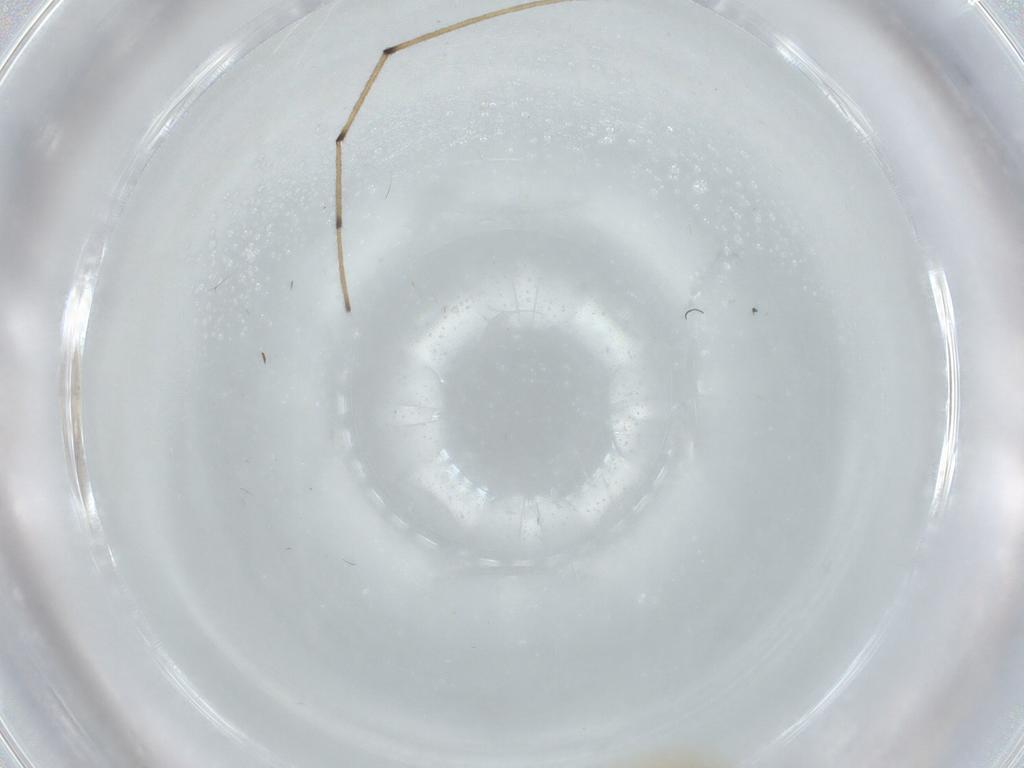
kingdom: Animalia
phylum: Arthropoda
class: Insecta
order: Diptera
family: Chironomidae
